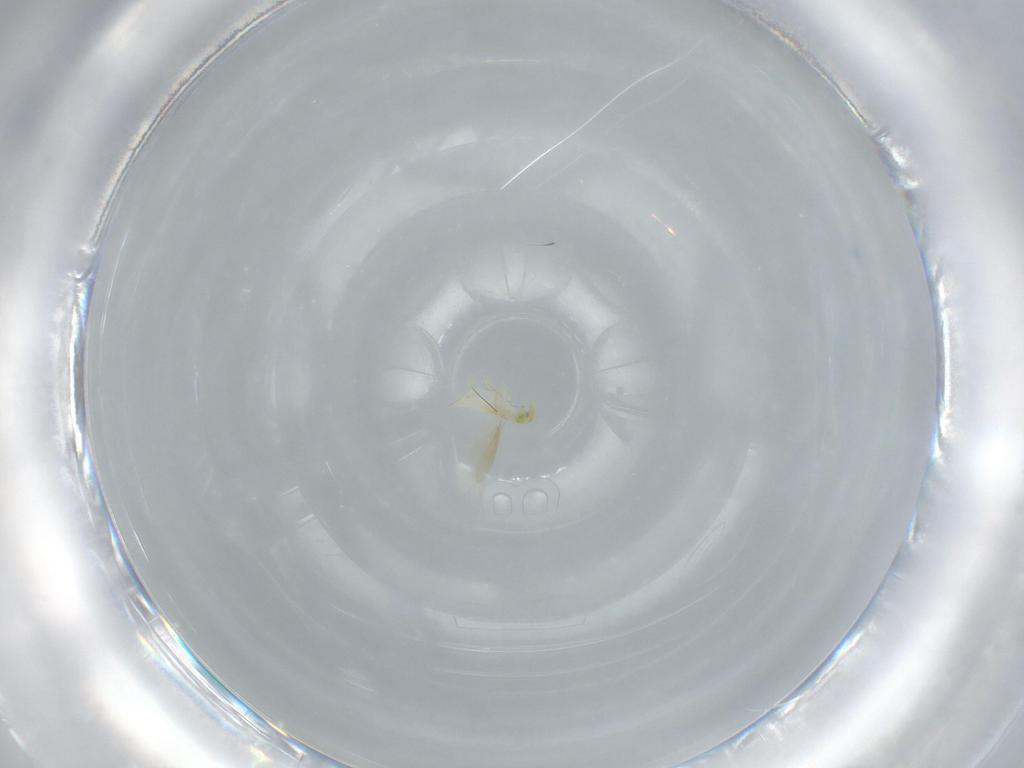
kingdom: Animalia
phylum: Arthropoda
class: Insecta
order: Hymenoptera
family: Aphelinidae
